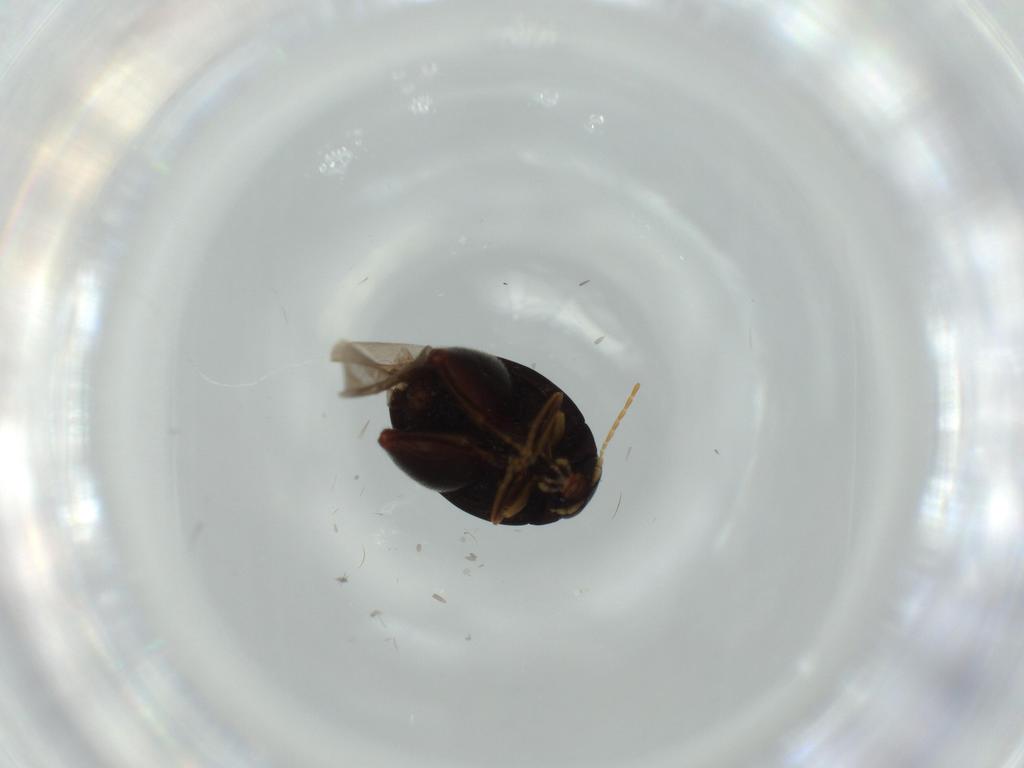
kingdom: Animalia
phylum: Arthropoda
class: Insecta
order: Coleoptera
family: Chrysomelidae
